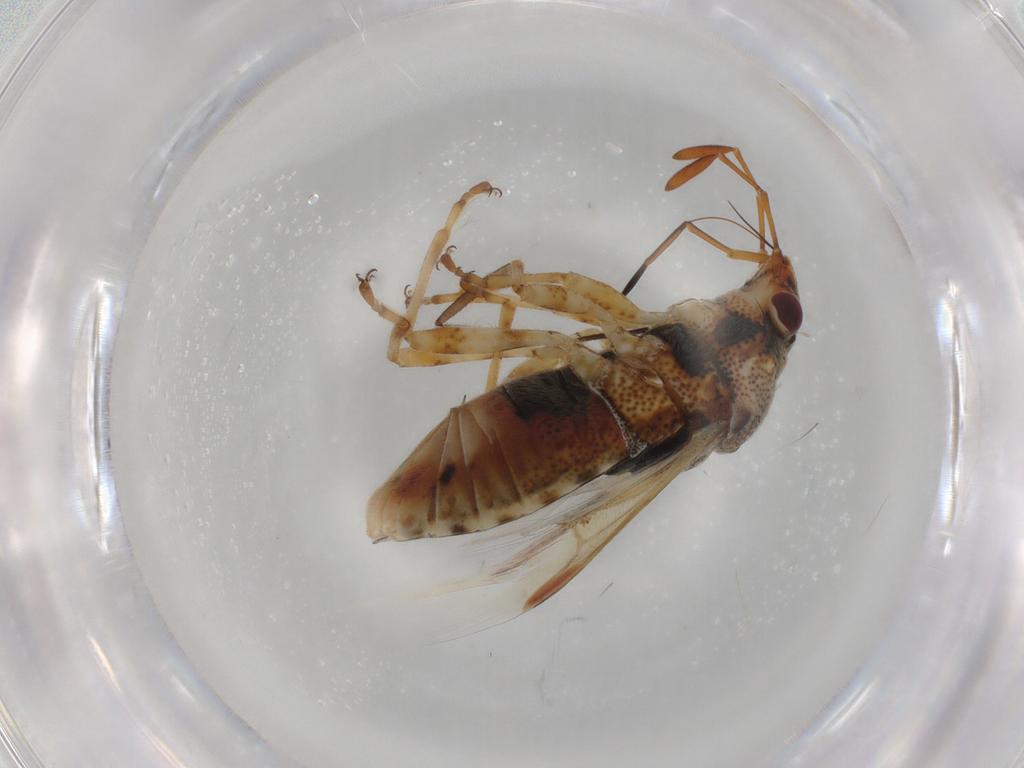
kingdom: Animalia
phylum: Arthropoda
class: Insecta
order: Hemiptera
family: Lygaeidae
